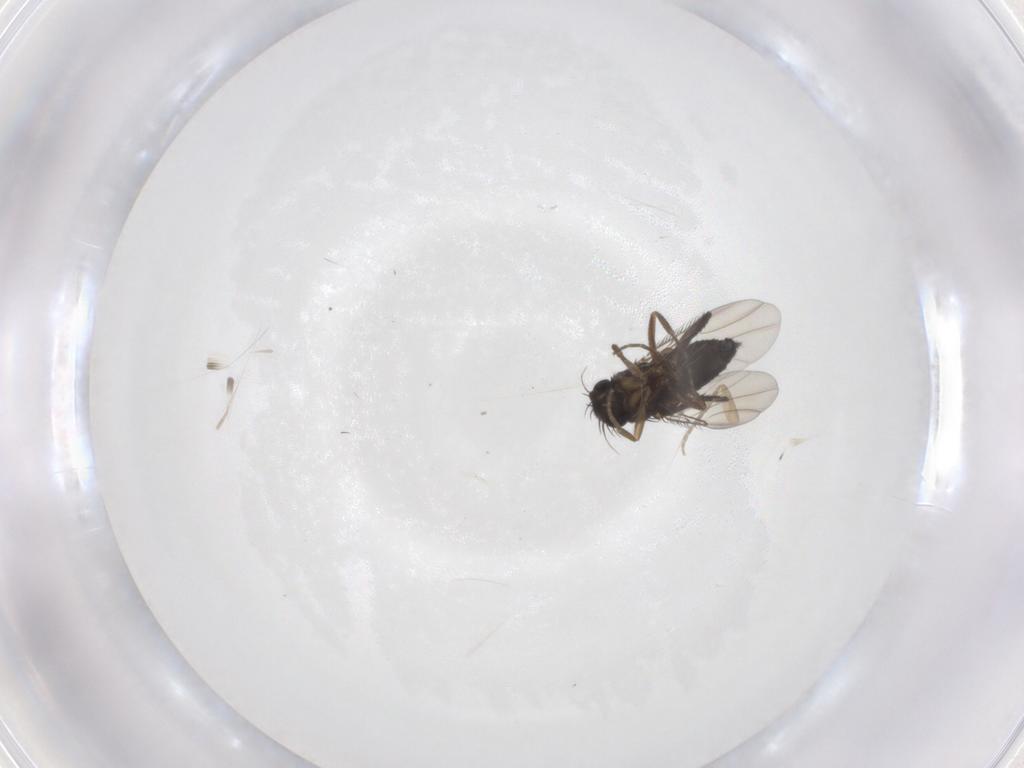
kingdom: Animalia
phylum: Arthropoda
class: Insecta
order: Diptera
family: Phoridae
